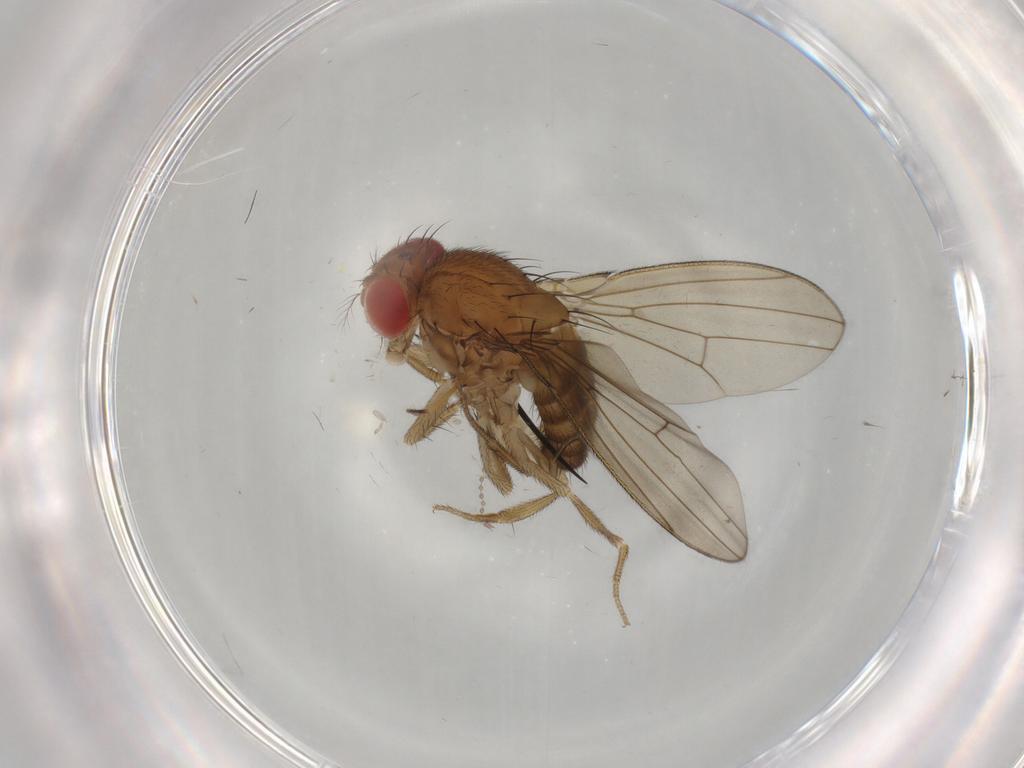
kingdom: Animalia
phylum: Arthropoda
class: Insecta
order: Diptera
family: Drosophilidae
